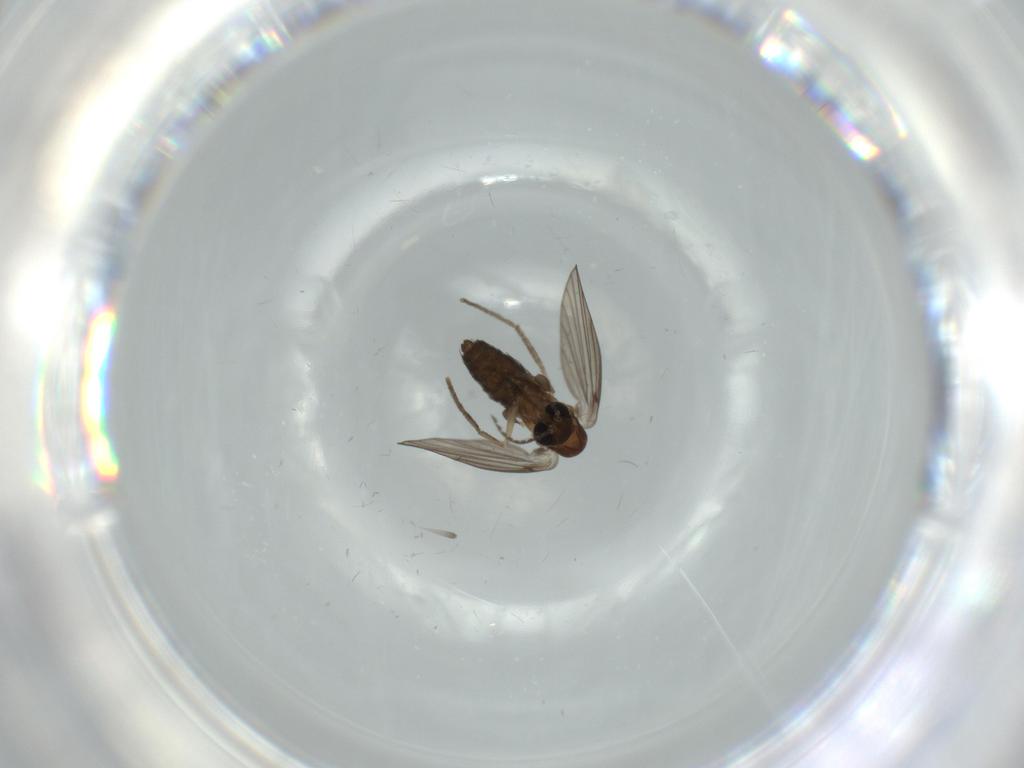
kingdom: Animalia
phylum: Arthropoda
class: Insecta
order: Diptera
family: Psychodidae
